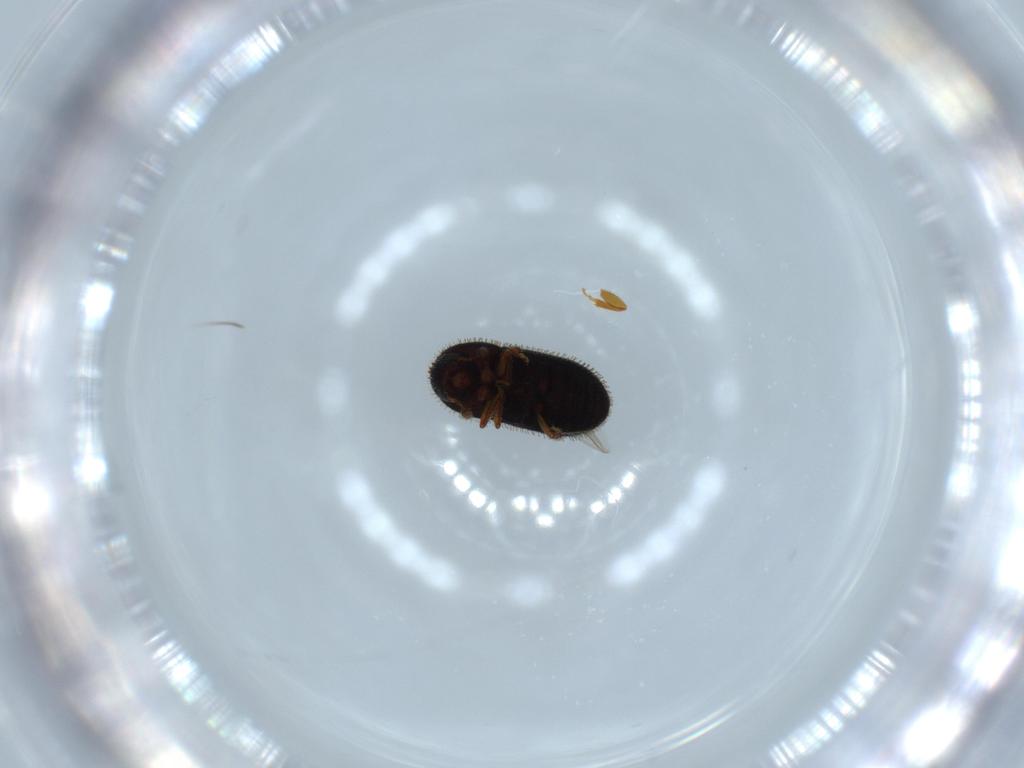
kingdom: Animalia
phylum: Arthropoda
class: Insecta
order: Coleoptera
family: Curculionidae
